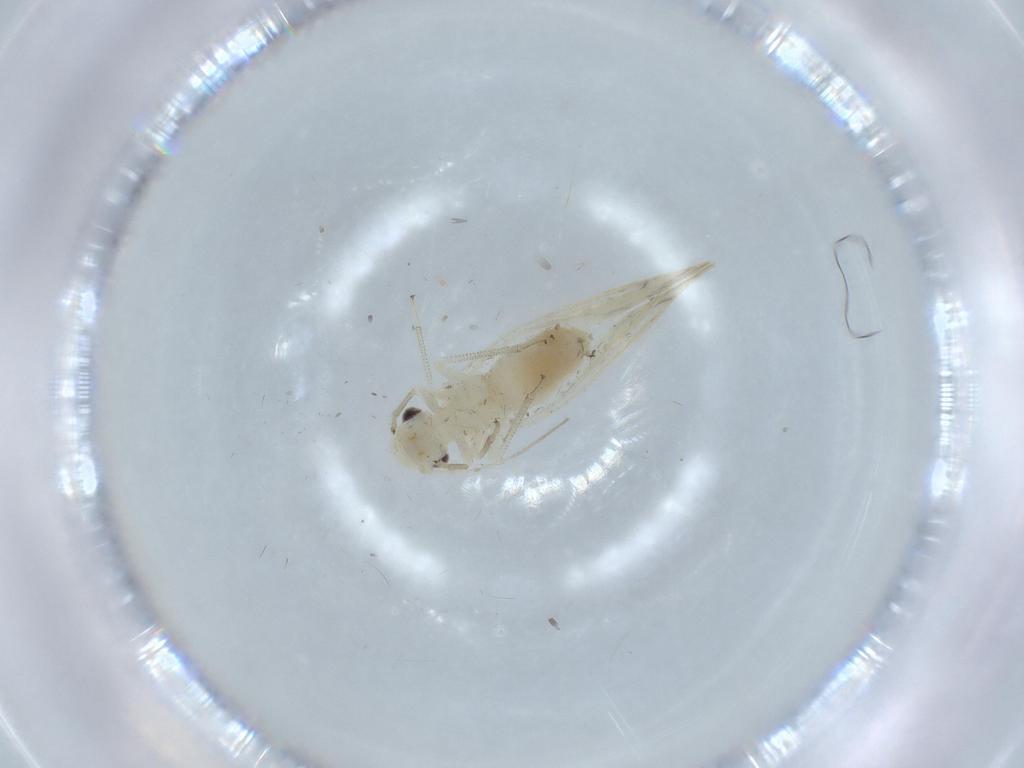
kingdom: Animalia
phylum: Arthropoda
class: Insecta
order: Psocodea
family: Caeciliusidae
